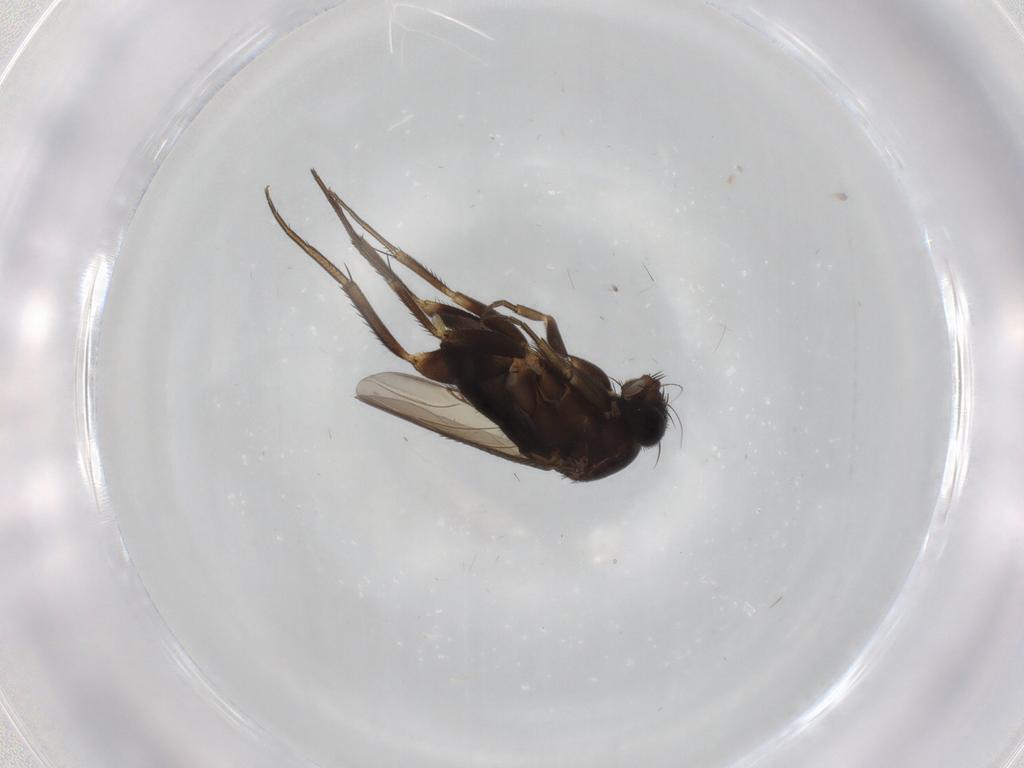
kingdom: Animalia
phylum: Arthropoda
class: Insecta
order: Diptera
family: Phoridae
